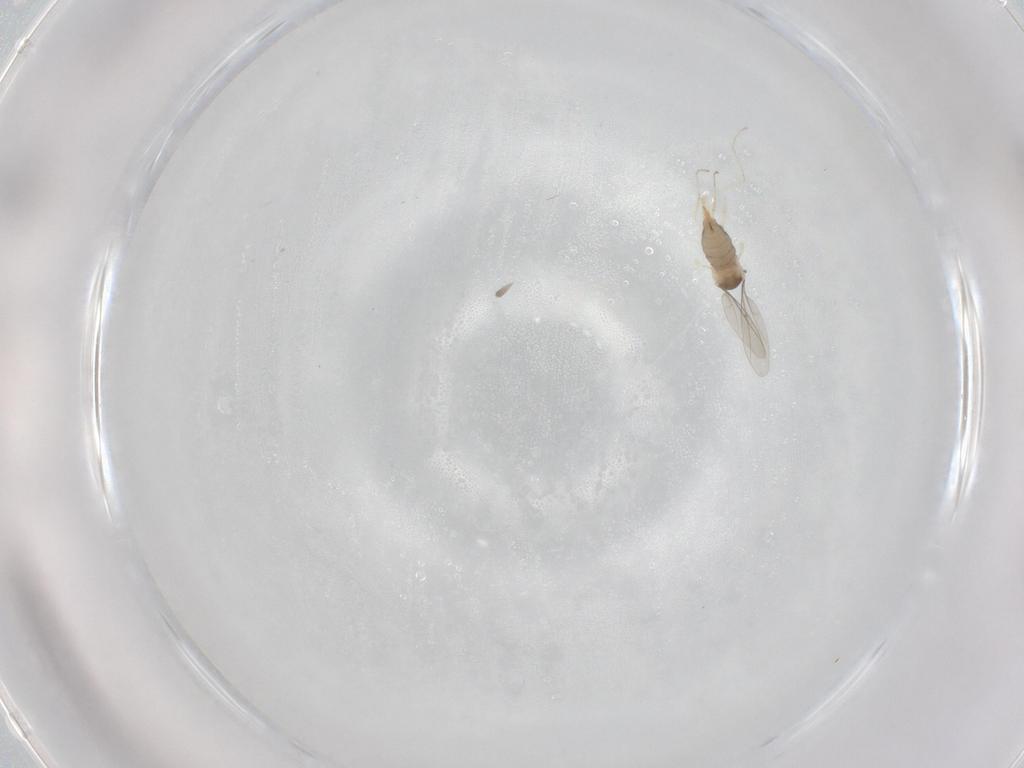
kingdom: Animalia
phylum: Arthropoda
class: Insecta
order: Diptera
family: Cecidomyiidae
